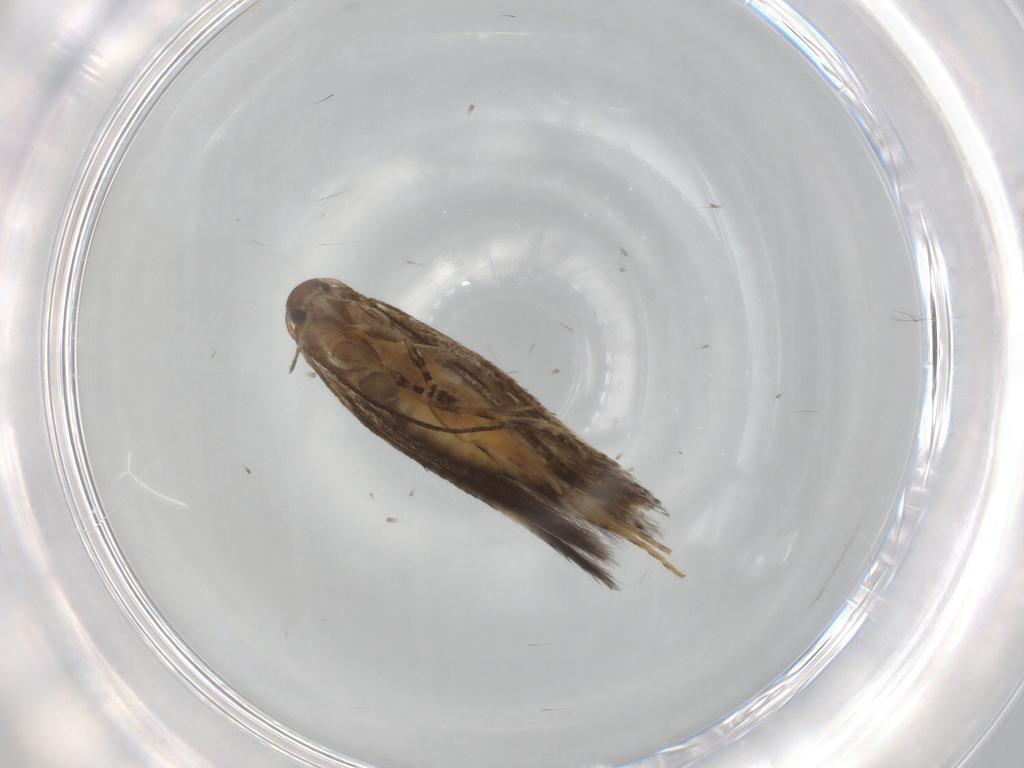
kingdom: Animalia
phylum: Arthropoda
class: Insecta
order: Lepidoptera
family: Elachistidae
